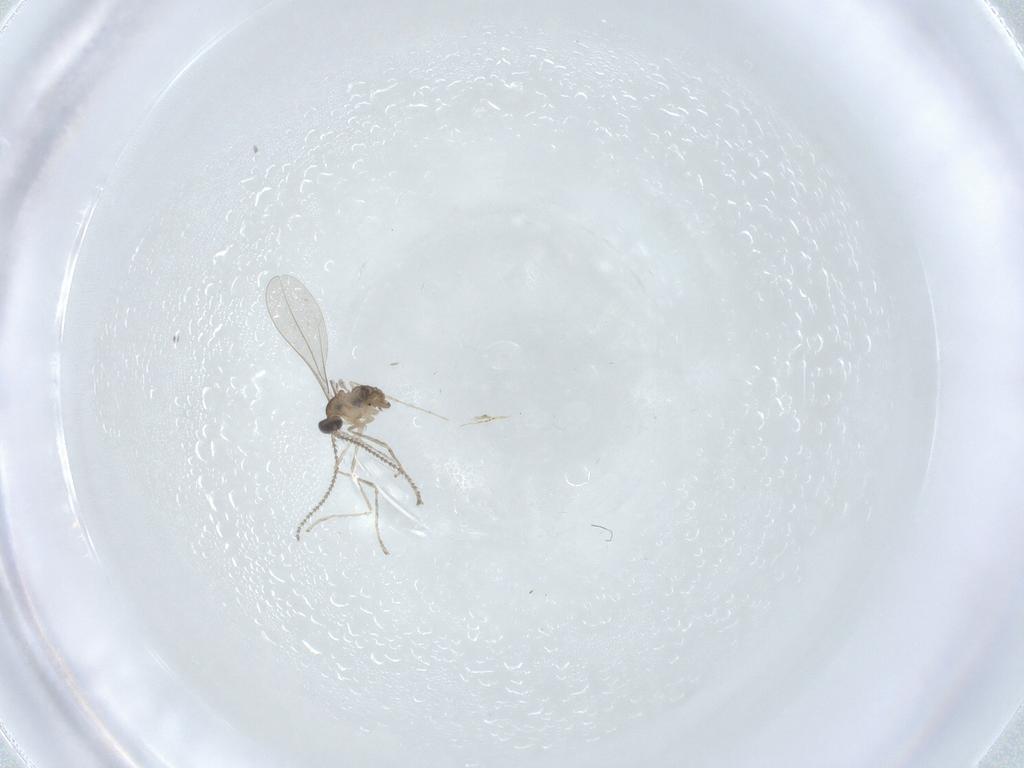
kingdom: Animalia
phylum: Arthropoda
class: Insecta
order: Diptera
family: Cecidomyiidae
